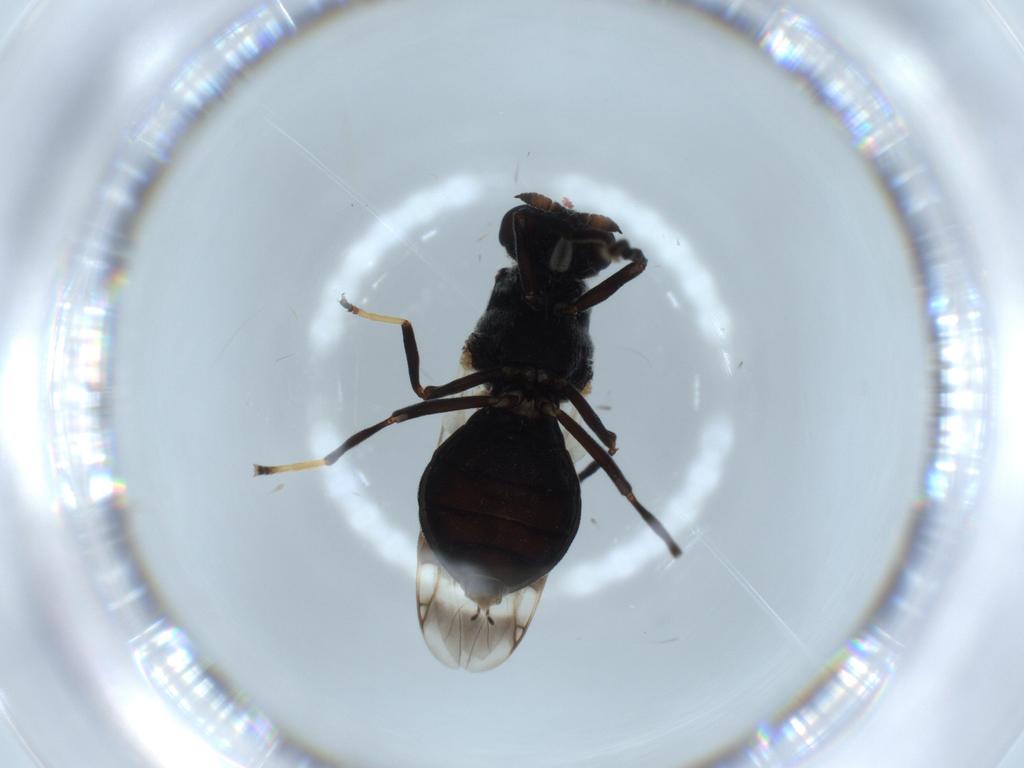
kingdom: Animalia
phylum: Arthropoda
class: Insecta
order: Diptera
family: Stratiomyidae
